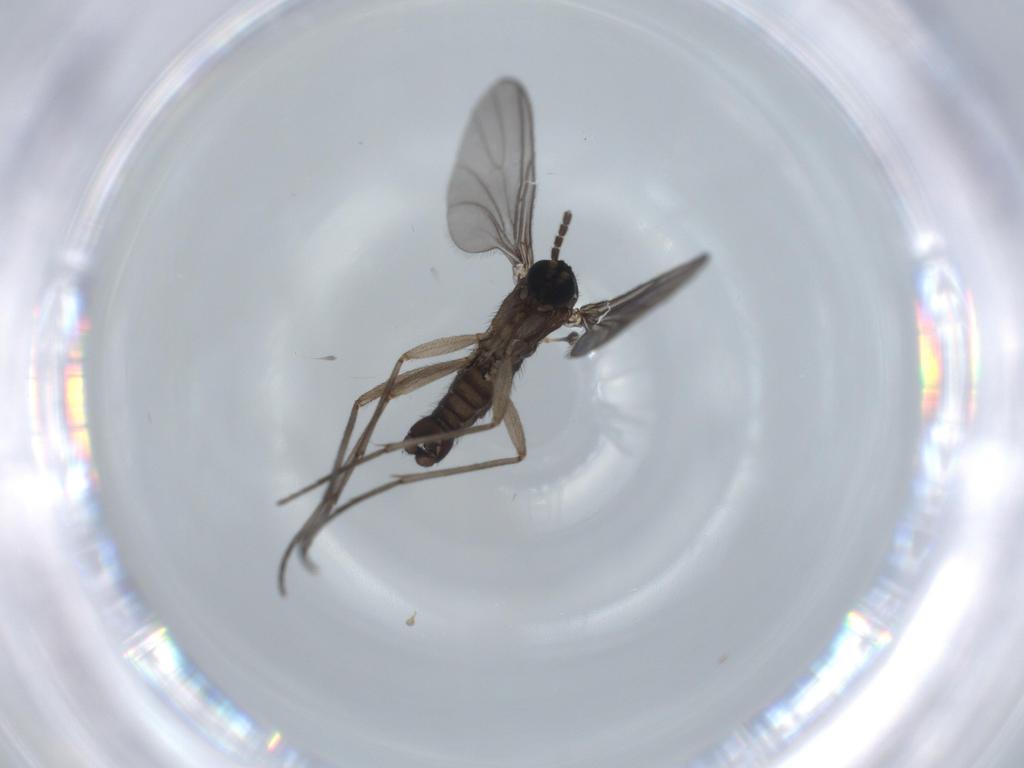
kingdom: Animalia
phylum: Arthropoda
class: Insecta
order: Diptera
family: Sciaridae
